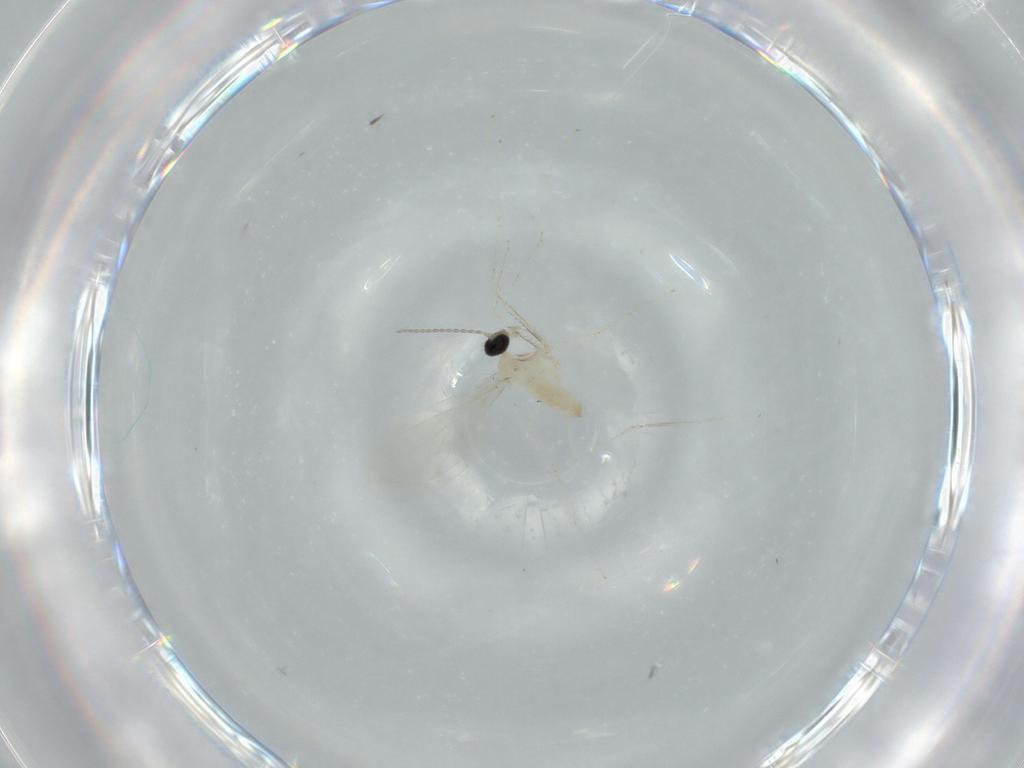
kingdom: Animalia
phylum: Arthropoda
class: Insecta
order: Diptera
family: Cecidomyiidae
